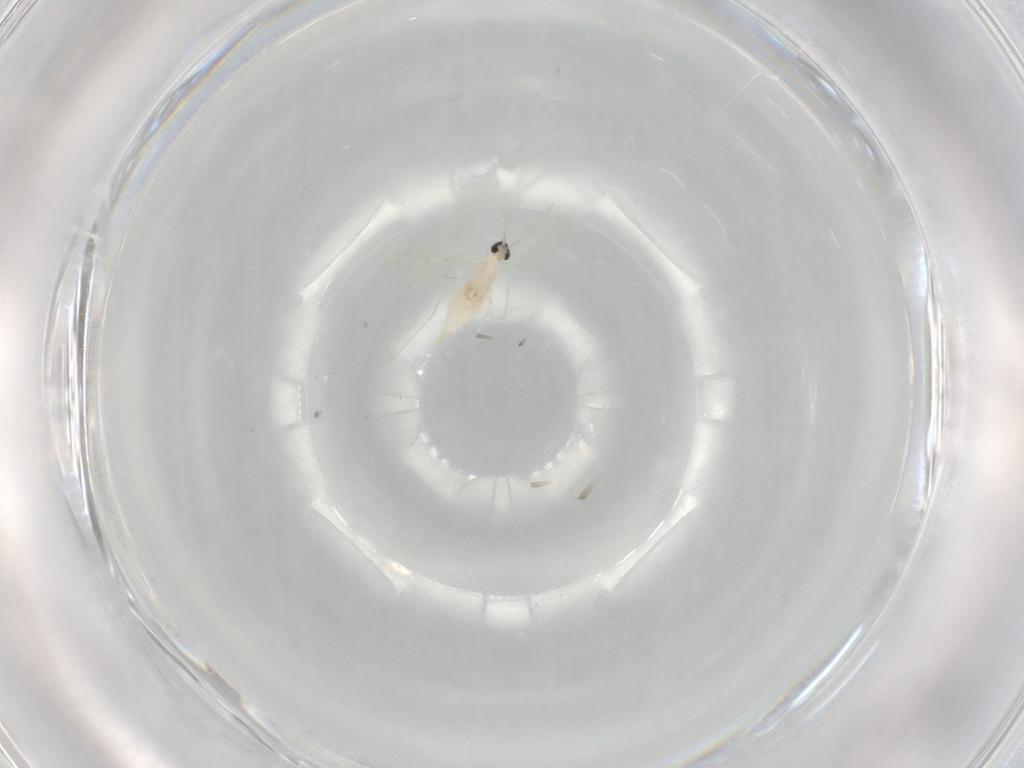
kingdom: Animalia
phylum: Arthropoda
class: Insecta
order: Diptera
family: Cecidomyiidae
